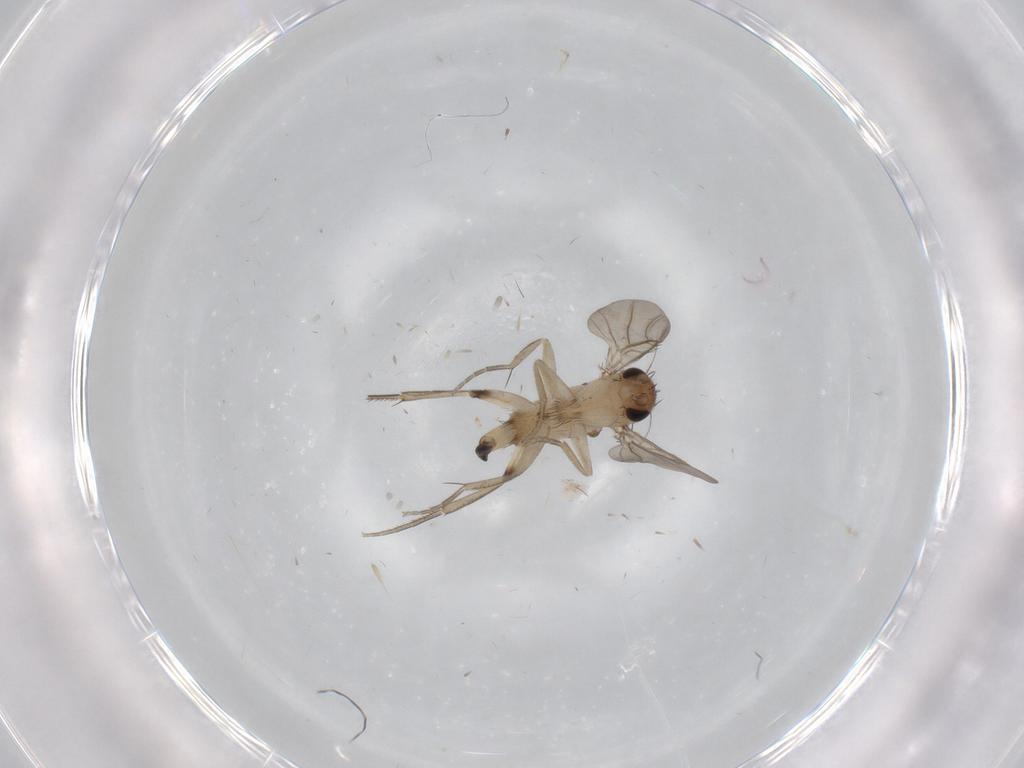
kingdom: Animalia
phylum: Arthropoda
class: Insecta
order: Diptera
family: Phoridae
